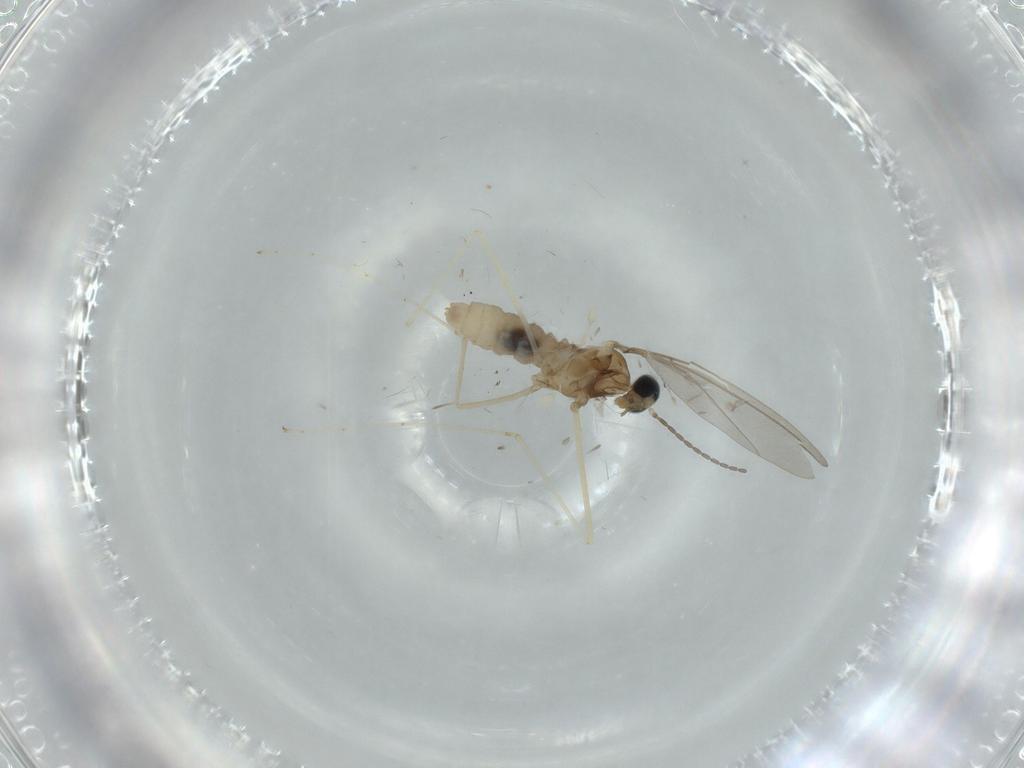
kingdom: Animalia
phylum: Arthropoda
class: Insecta
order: Diptera
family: Cecidomyiidae
